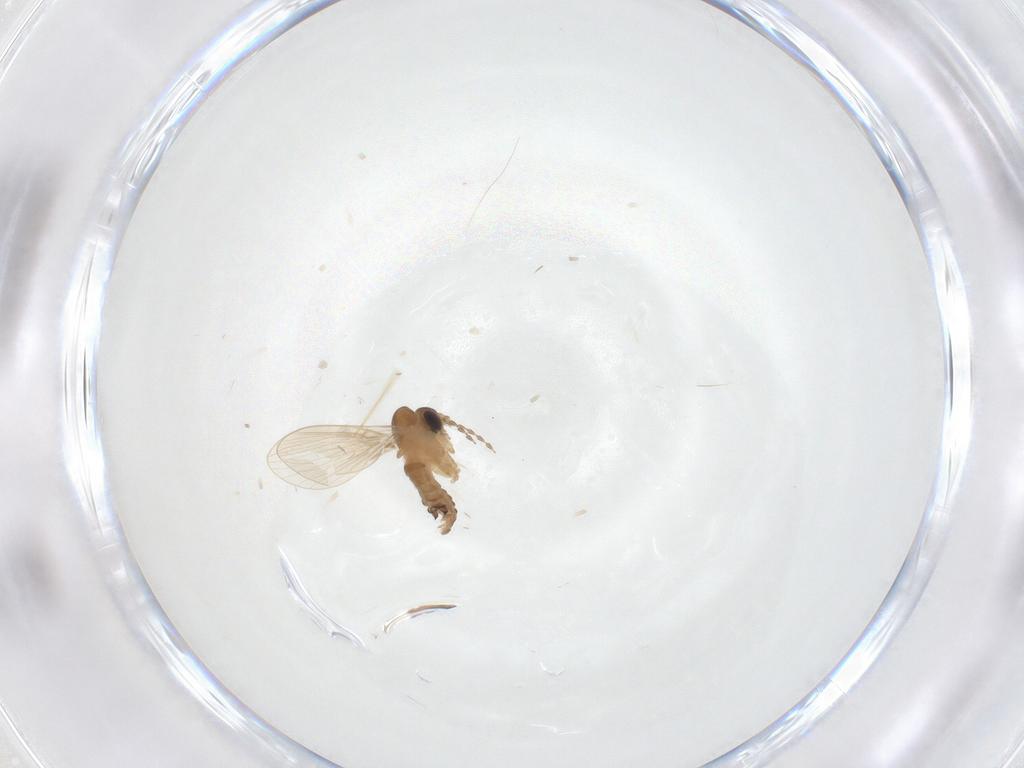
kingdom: Animalia
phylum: Arthropoda
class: Insecta
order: Diptera
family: Psychodidae
